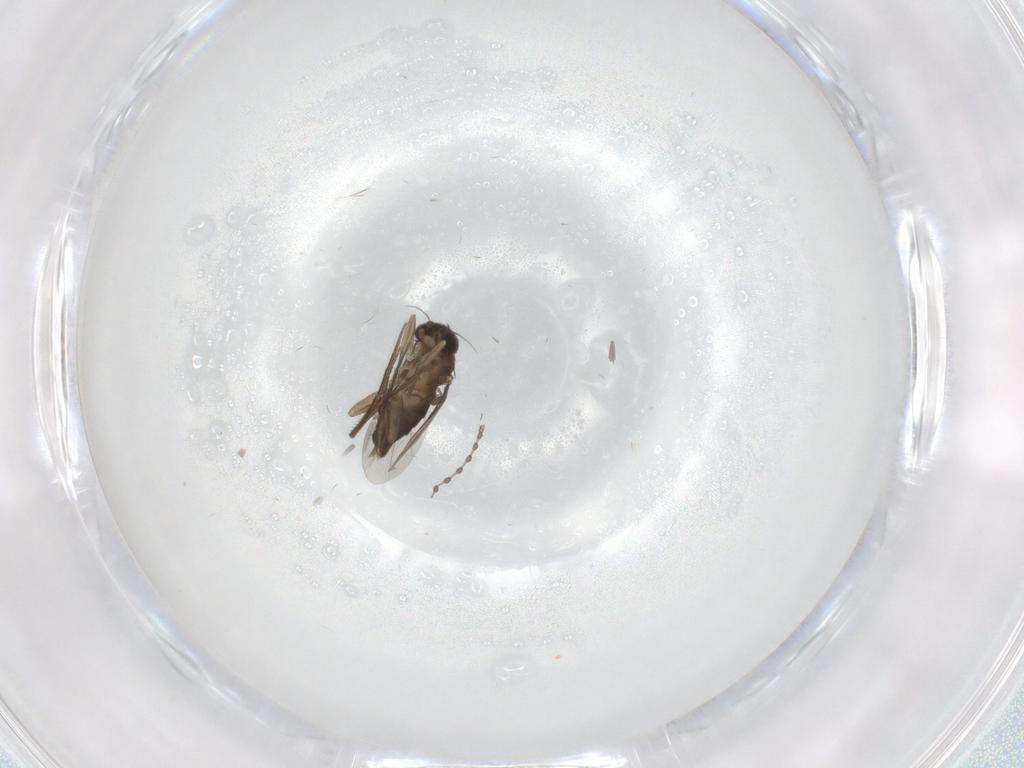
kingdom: Animalia
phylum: Arthropoda
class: Insecta
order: Diptera
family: Phoridae
